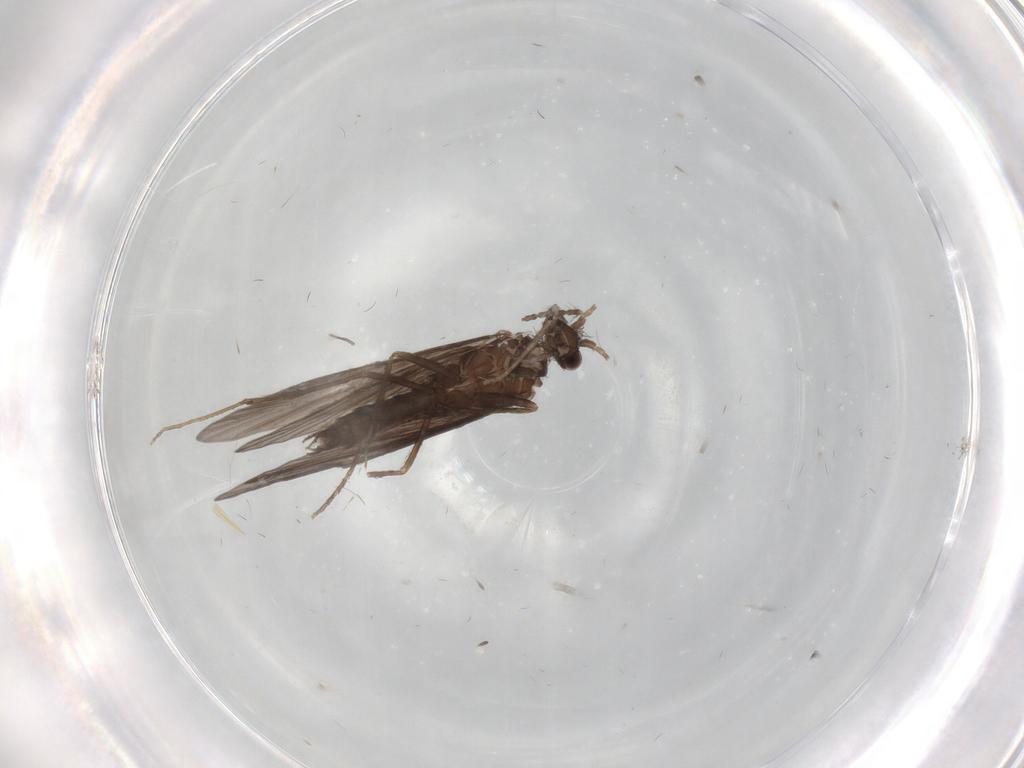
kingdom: Animalia
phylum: Arthropoda
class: Insecta
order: Trichoptera
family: Xiphocentronidae
